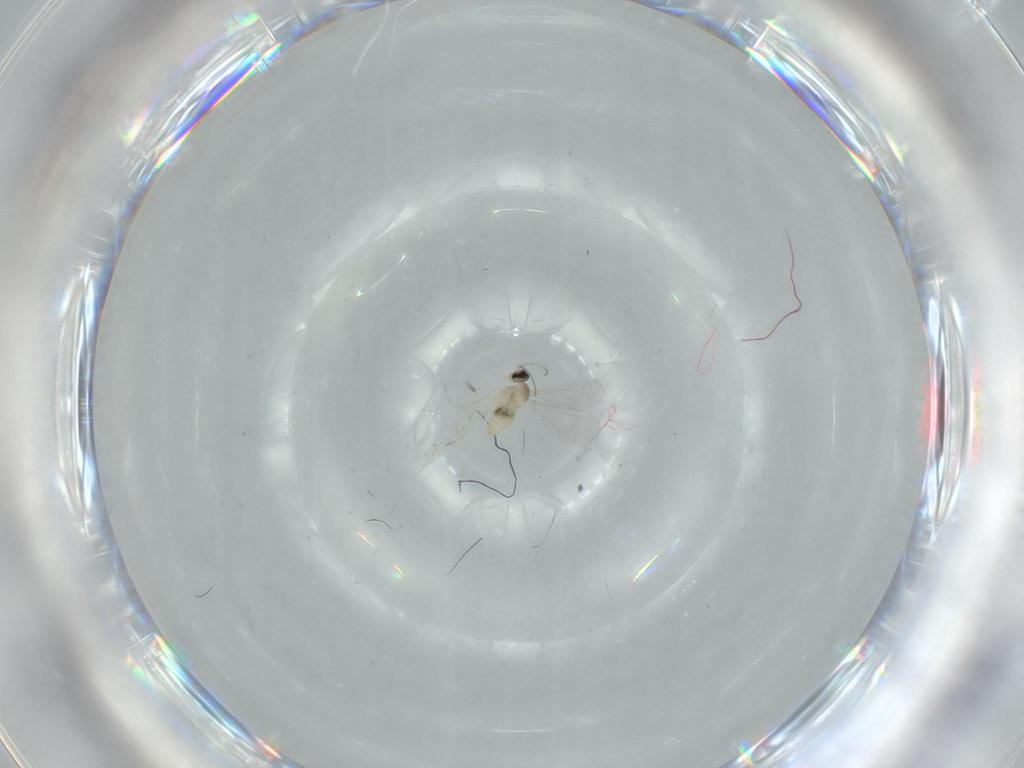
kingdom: Animalia
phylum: Arthropoda
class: Insecta
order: Diptera
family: Cecidomyiidae
